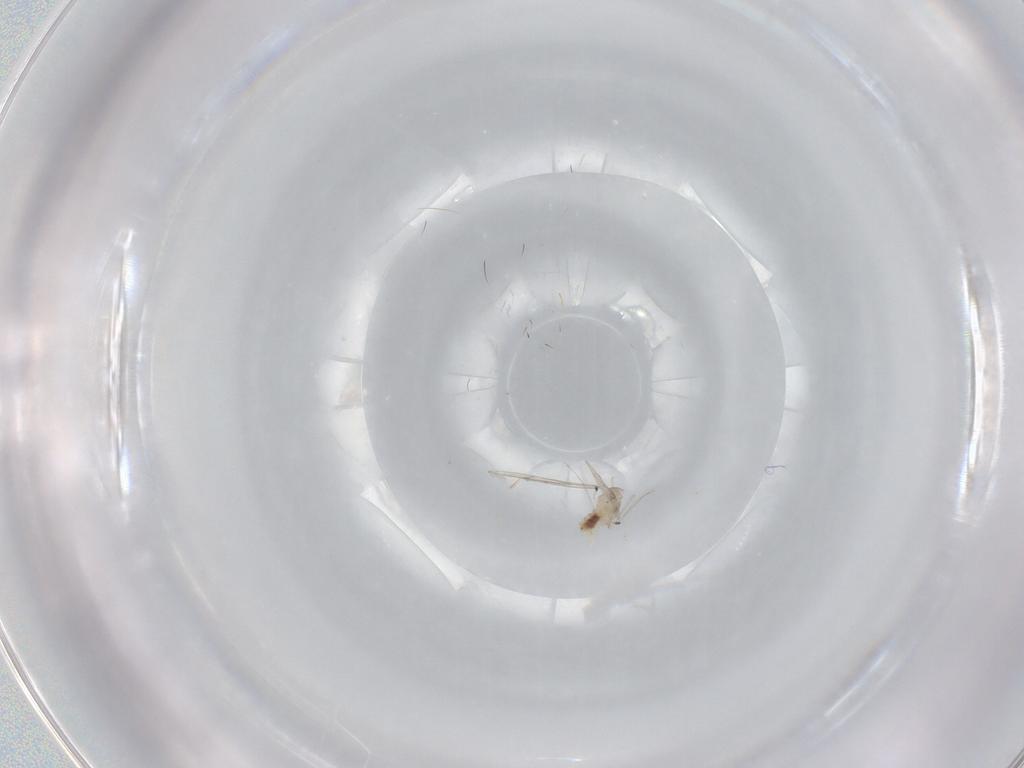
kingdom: Animalia
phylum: Arthropoda
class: Insecta
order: Diptera
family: Cecidomyiidae
